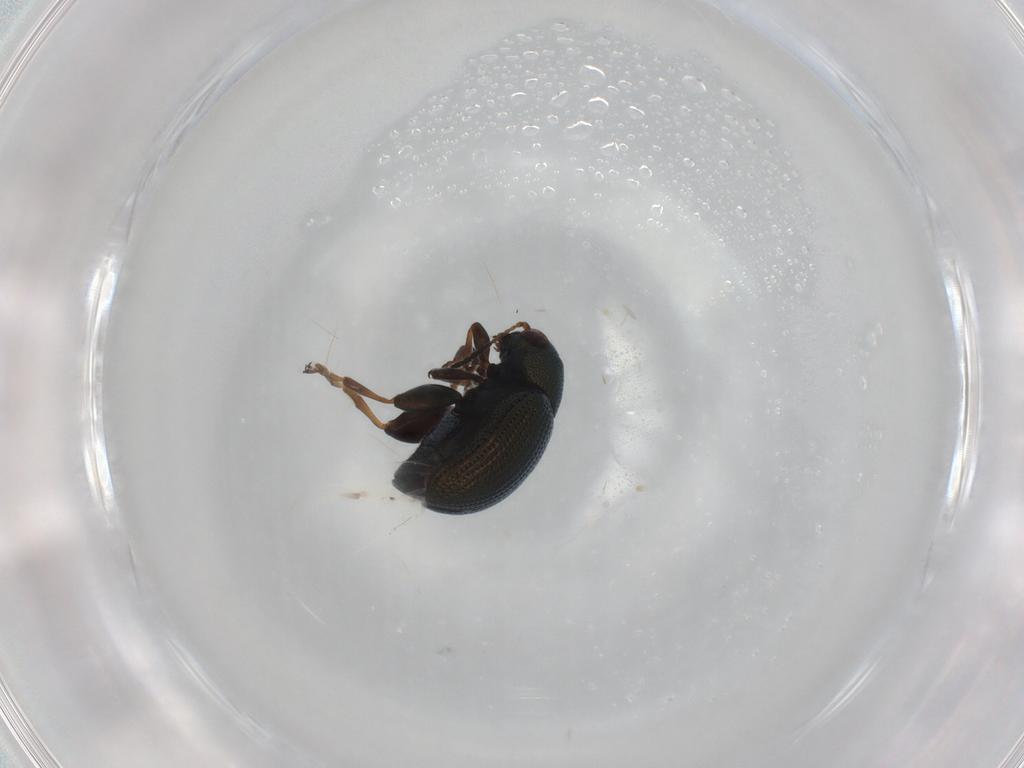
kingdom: Animalia
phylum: Arthropoda
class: Insecta
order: Coleoptera
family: Chrysomelidae
